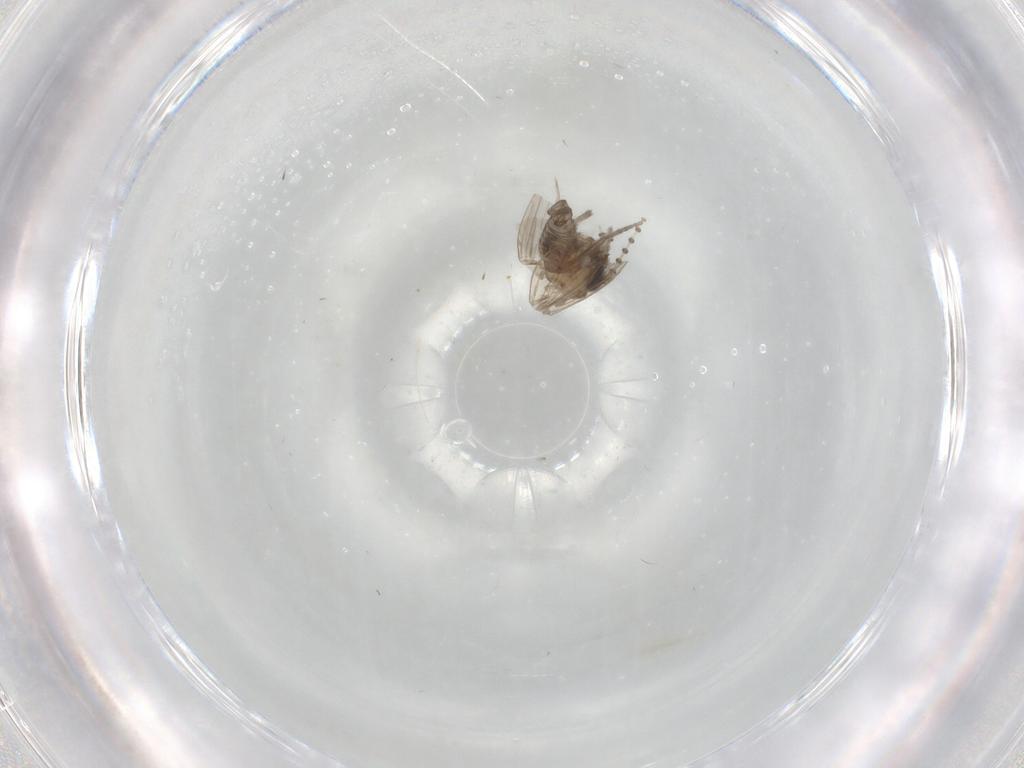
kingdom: Animalia
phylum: Arthropoda
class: Insecta
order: Diptera
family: Psychodidae
